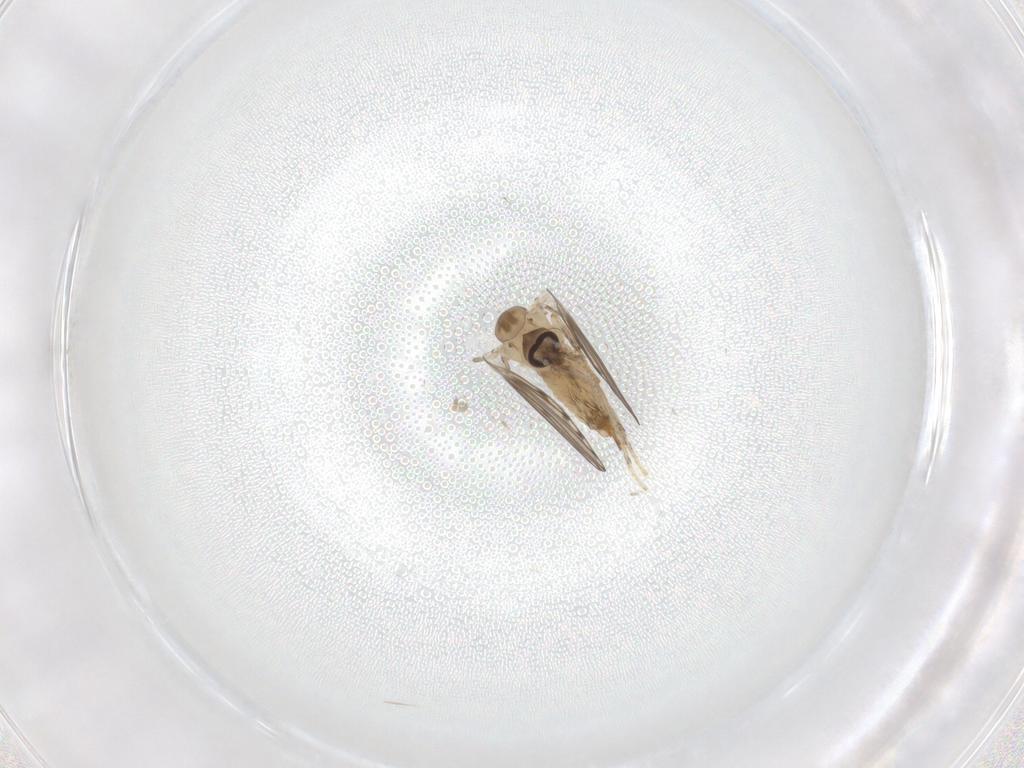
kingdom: Animalia
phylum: Arthropoda
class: Insecta
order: Diptera
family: Psychodidae
